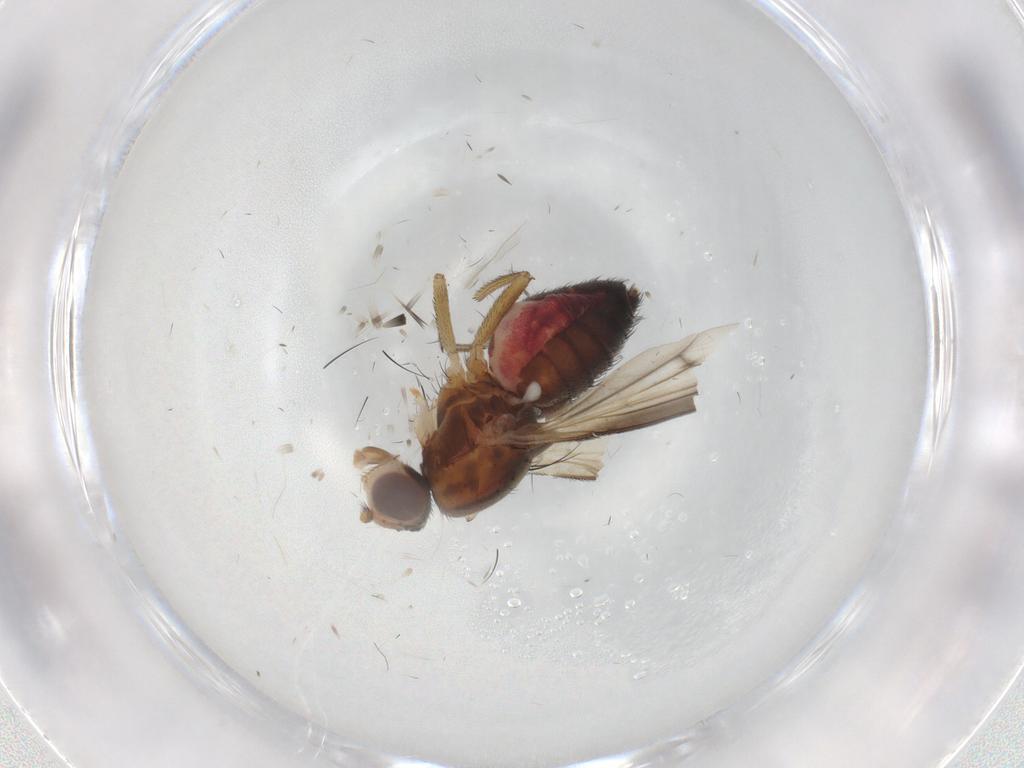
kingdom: Animalia
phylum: Arthropoda
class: Insecta
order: Diptera
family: Heleomyzidae
